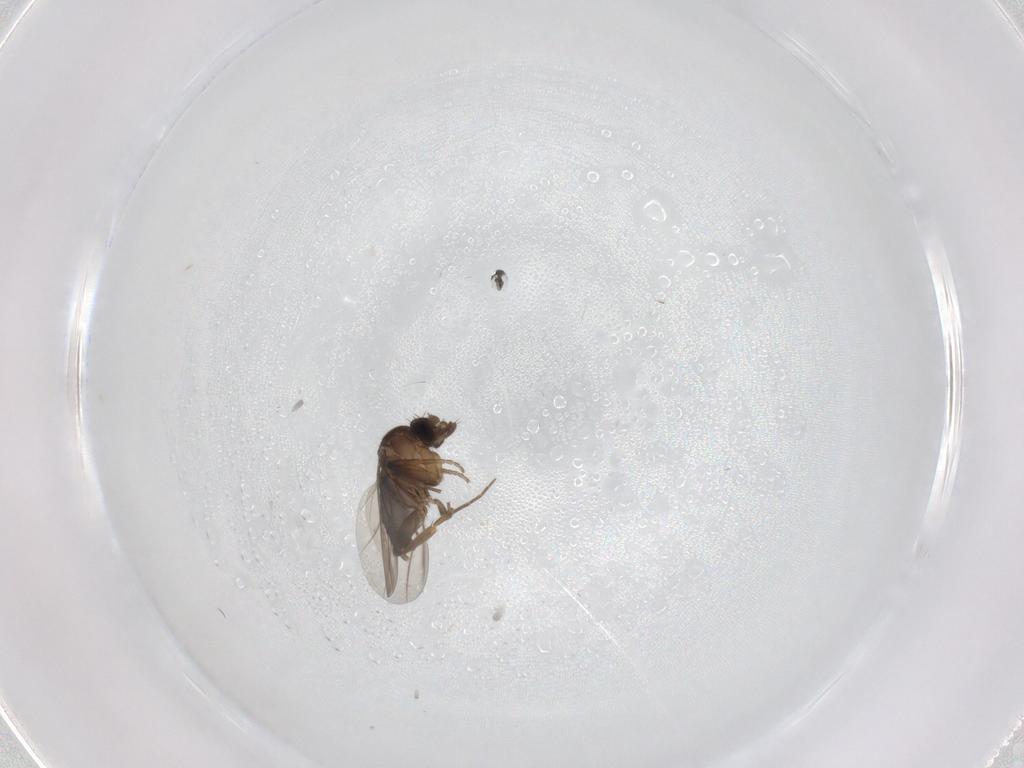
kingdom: Animalia
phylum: Arthropoda
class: Insecta
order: Diptera
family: Phoridae
